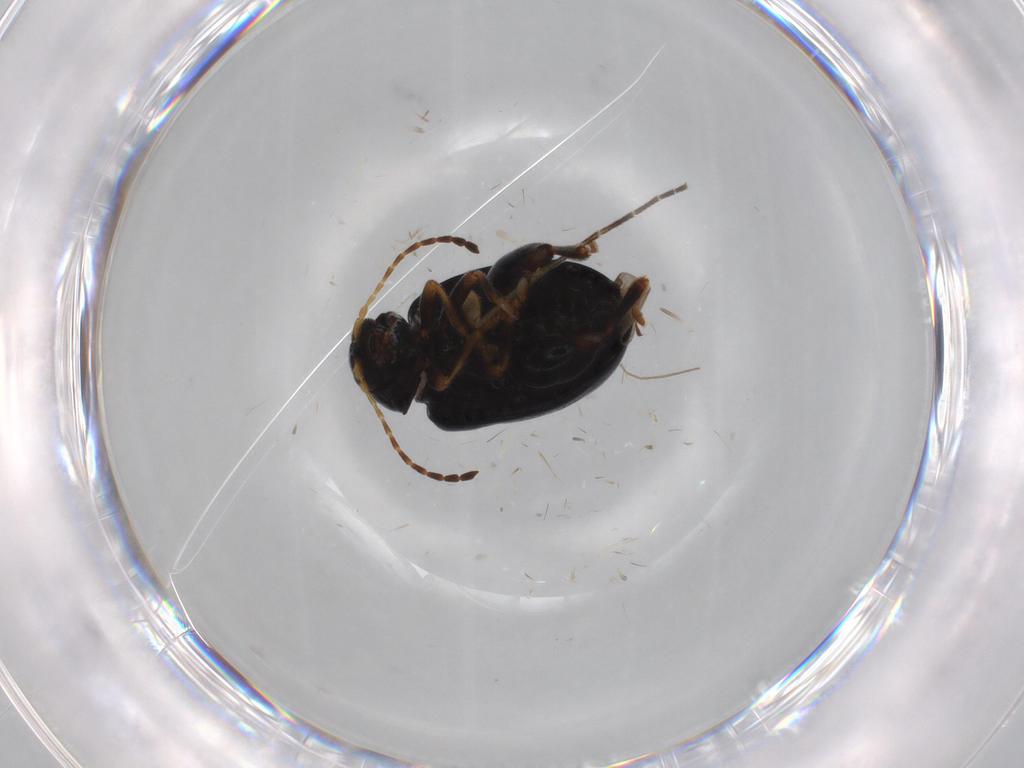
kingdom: Animalia
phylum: Arthropoda
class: Insecta
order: Coleoptera
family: Chrysomelidae
